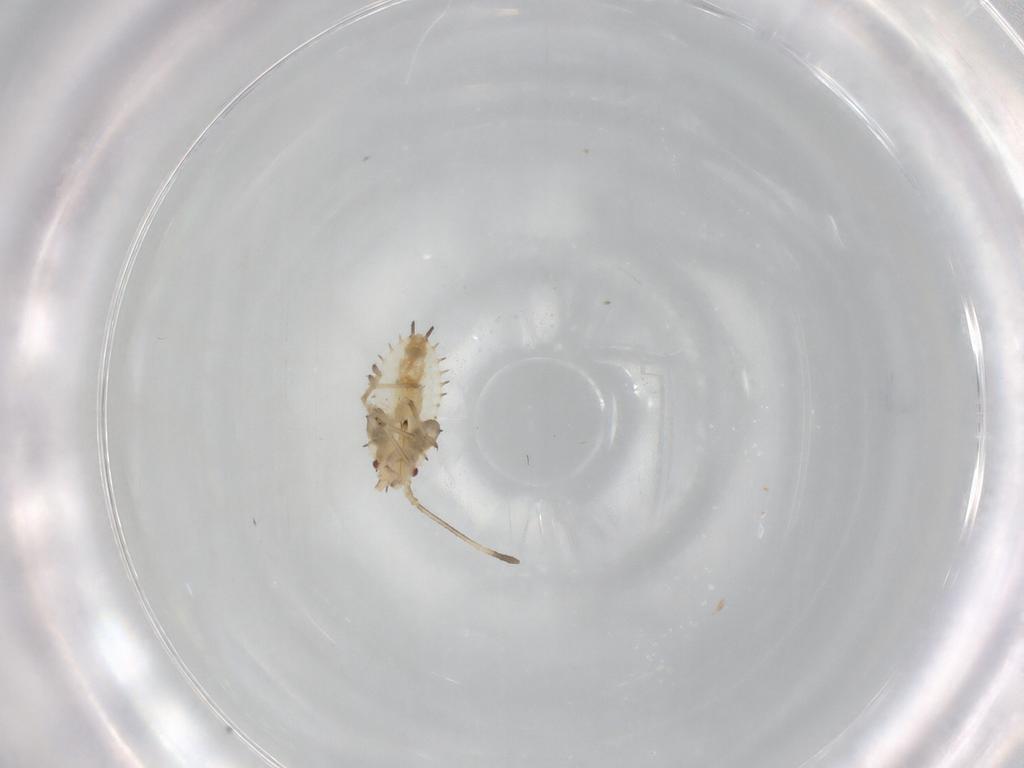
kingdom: Animalia
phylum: Arthropoda
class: Insecta
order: Hemiptera
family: Tingidae
